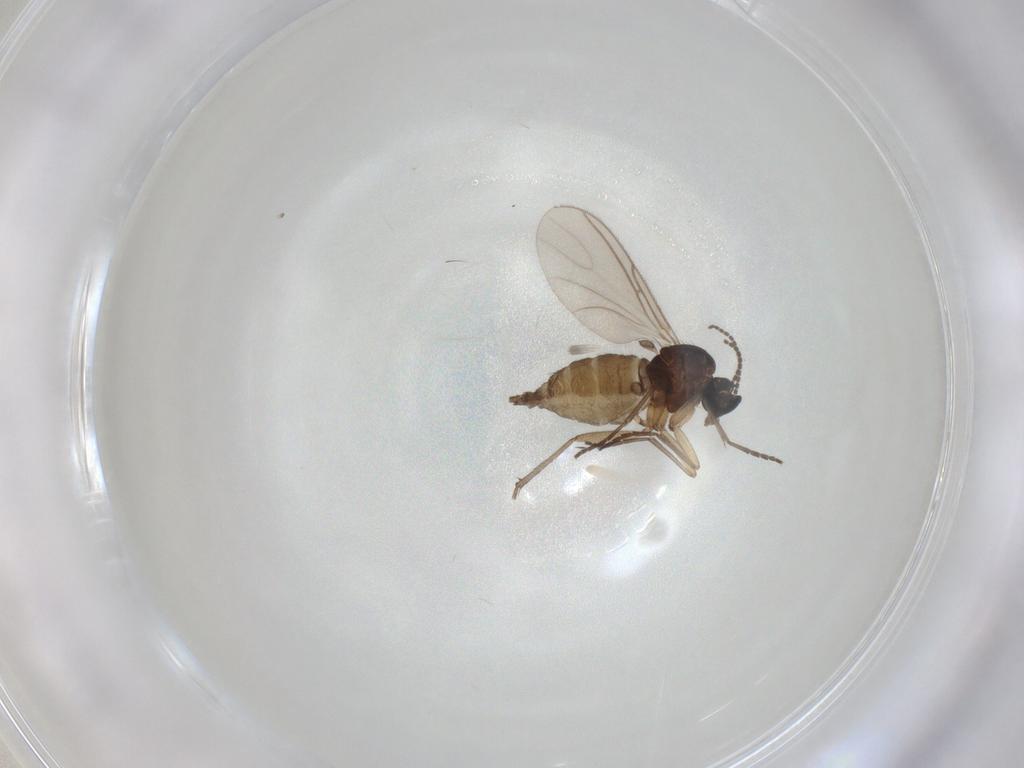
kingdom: Animalia
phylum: Arthropoda
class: Insecta
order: Diptera
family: Sciaridae
